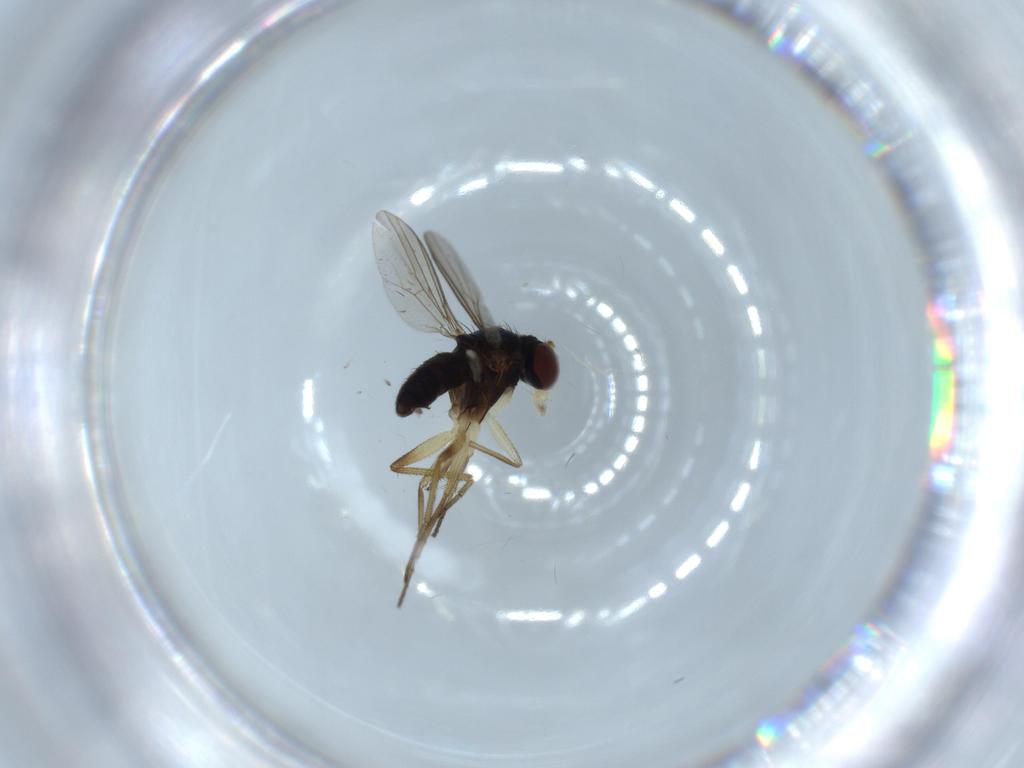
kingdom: Animalia
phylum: Arthropoda
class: Insecta
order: Diptera
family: Dolichopodidae
